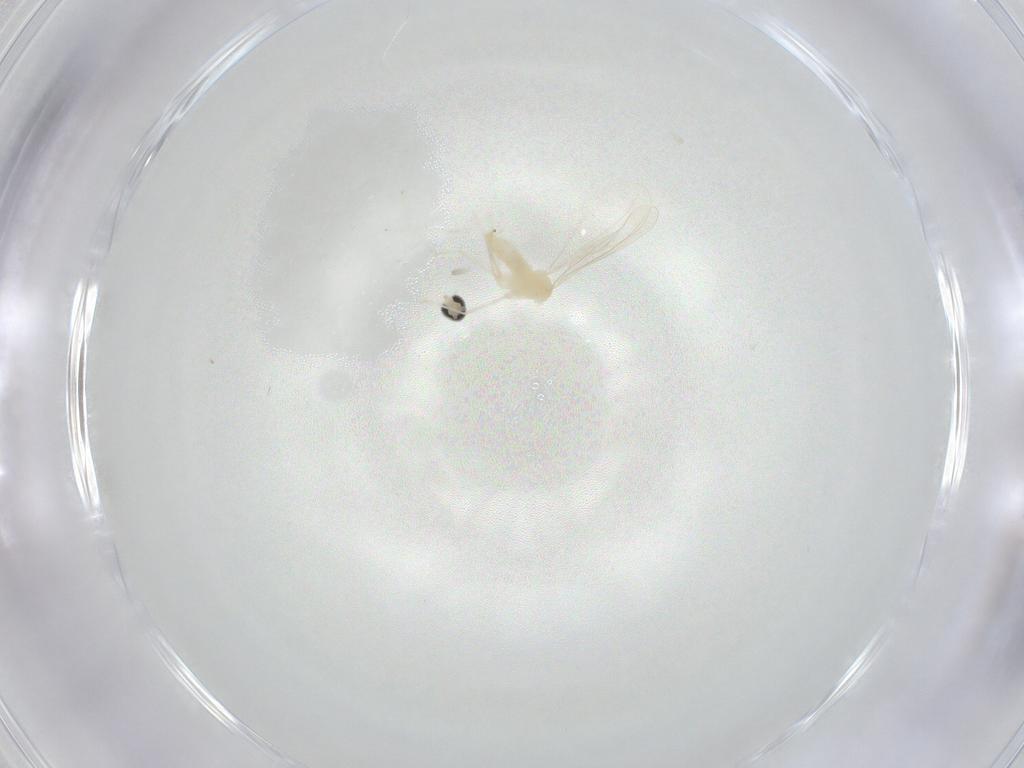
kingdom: Animalia
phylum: Arthropoda
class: Insecta
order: Diptera
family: Cecidomyiidae
